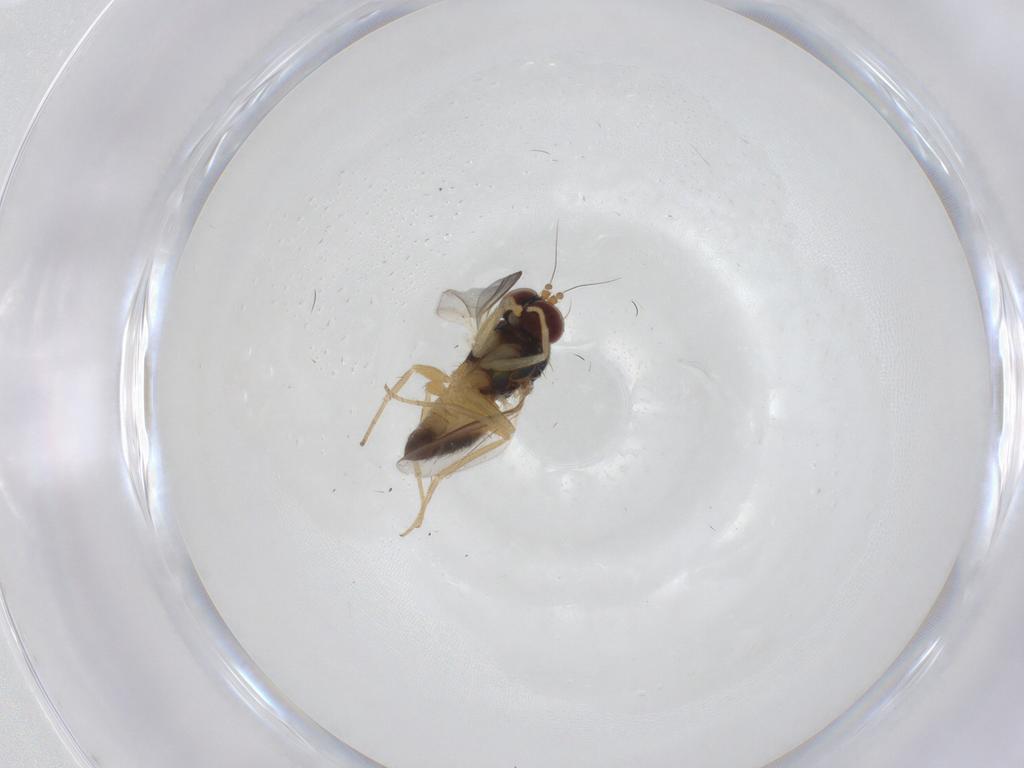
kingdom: Animalia
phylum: Arthropoda
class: Insecta
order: Diptera
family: Dolichopodidae
